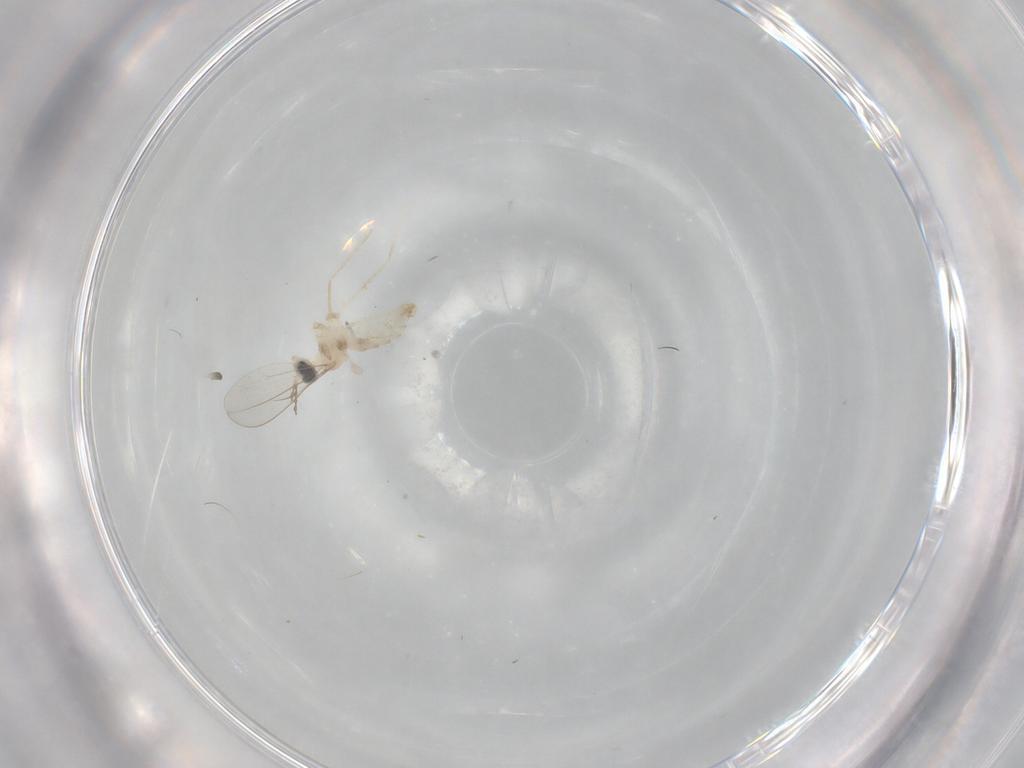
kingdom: Animalia
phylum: Arthropoda
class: Insecta
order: Diptera
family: Cecidomyiidae
